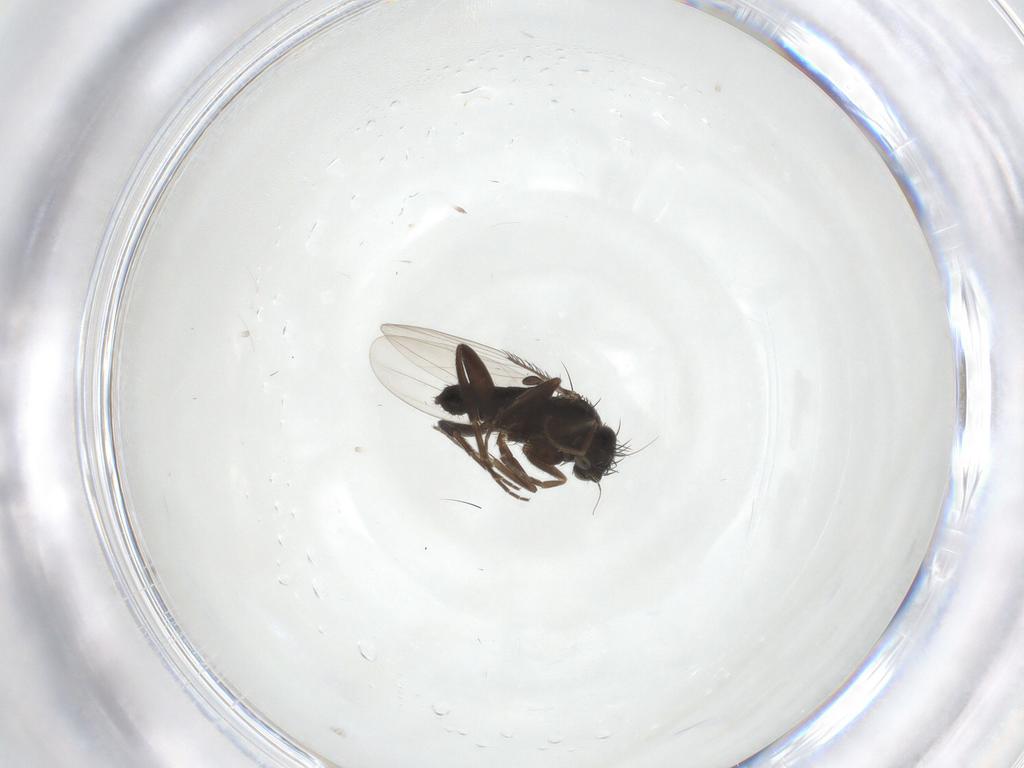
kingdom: Animalia
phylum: Arthropoda
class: Insecta
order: Diptera
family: Phoridae
